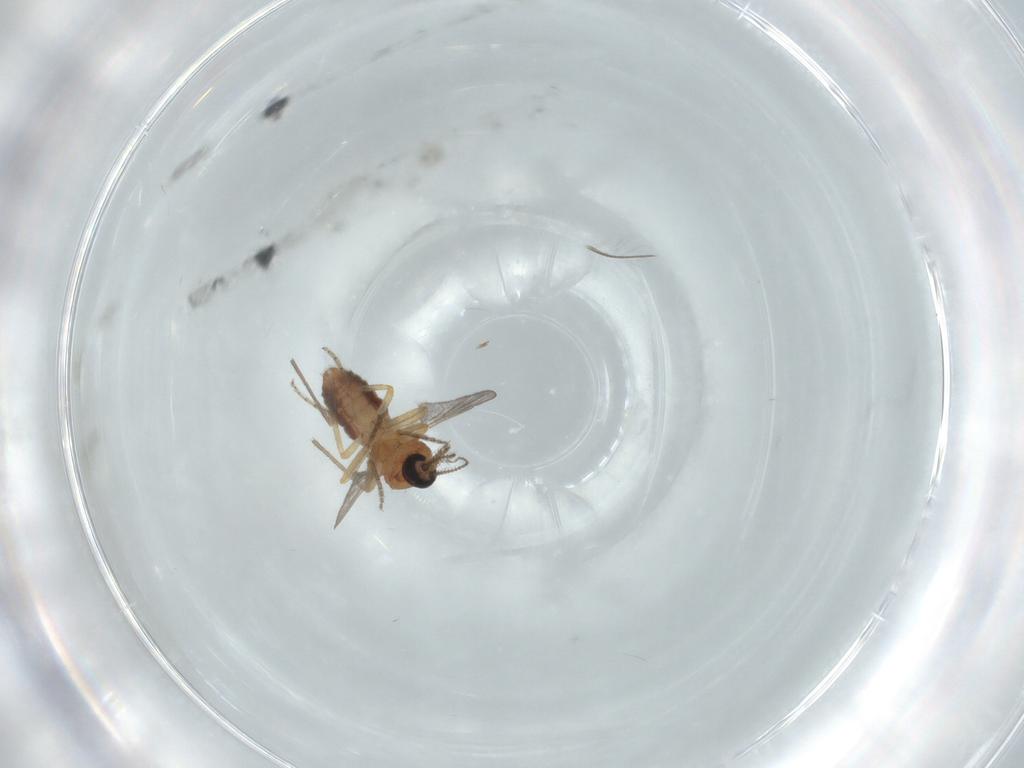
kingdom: Animalia
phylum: Arthropoda
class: Insecta
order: Diptera
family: Ceratopogonidae
